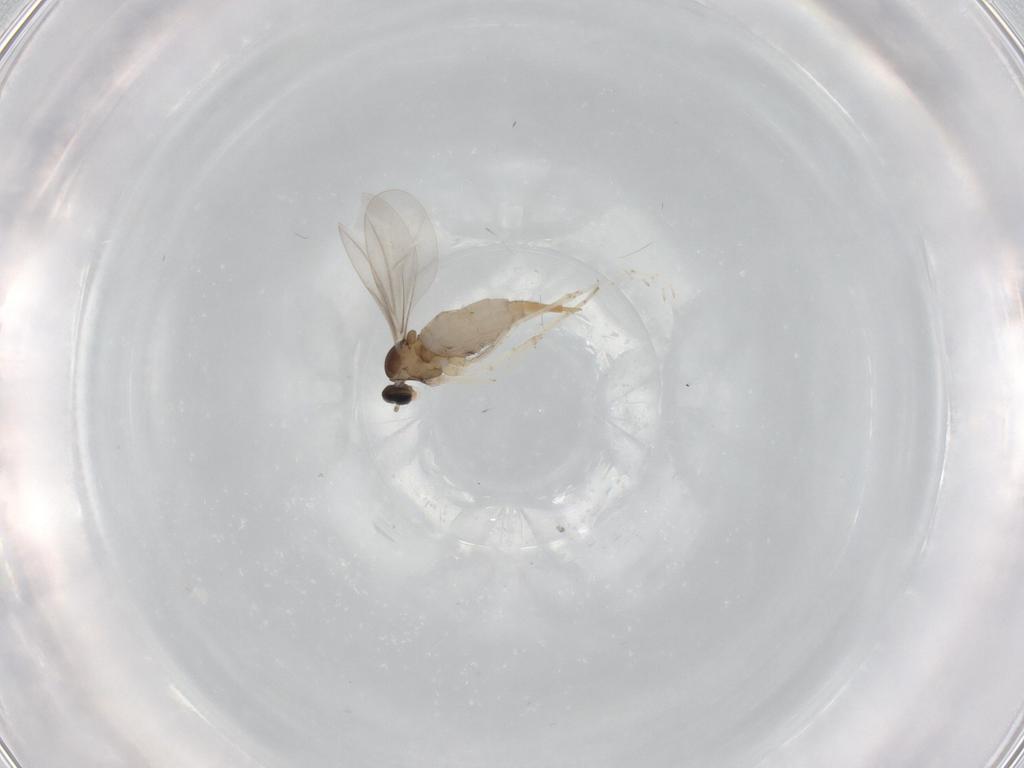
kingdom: Animalia
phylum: Arthropoda
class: Insecta
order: Diptera
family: Cecidomyiidae
